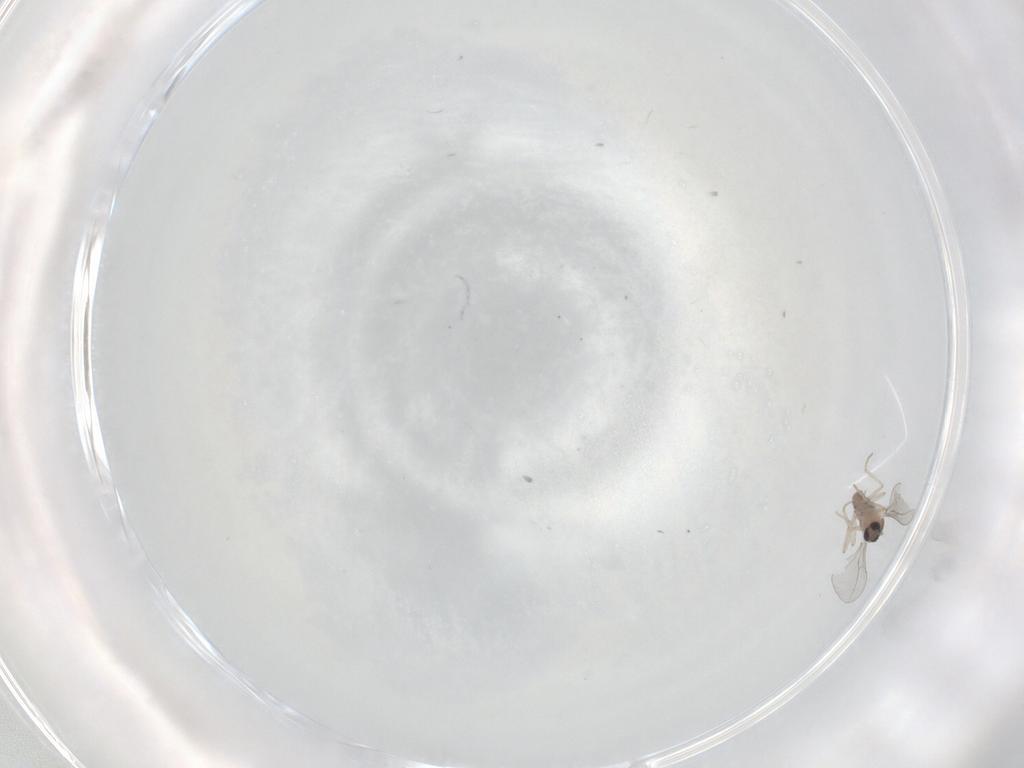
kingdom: Animalia
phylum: Arthropoda
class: Insecta
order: Diptera
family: Cecidomyiidae
